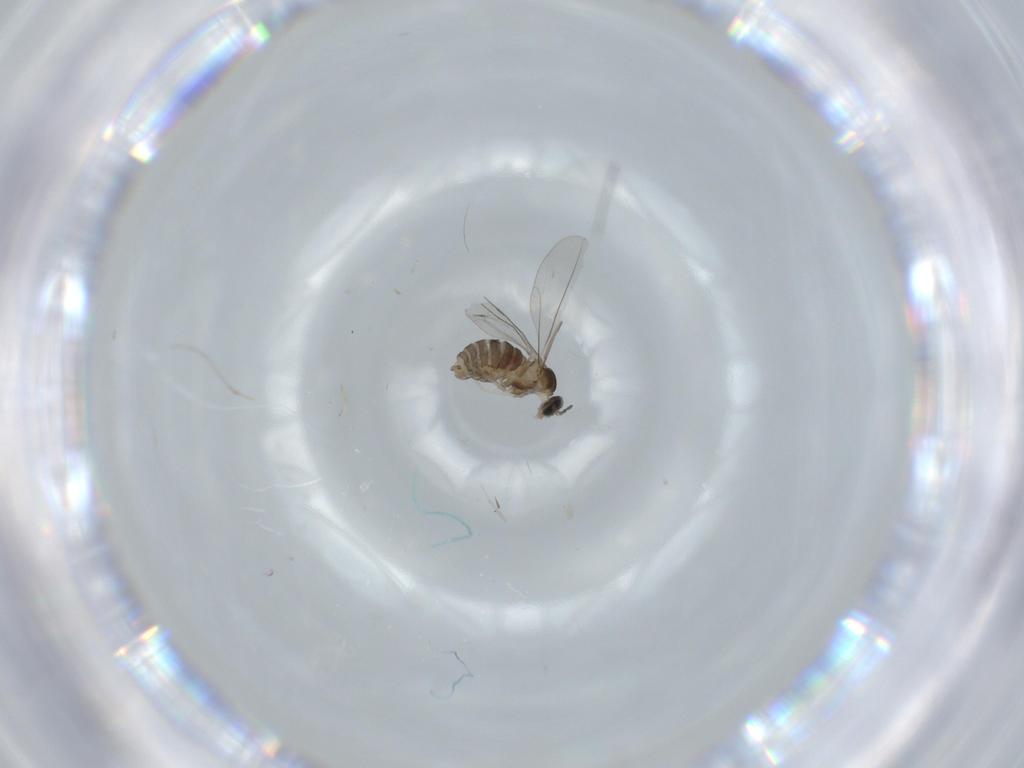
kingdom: Animalia
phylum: Arthropoda
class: Insecta
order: Diptera
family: Cecidomyiidae
